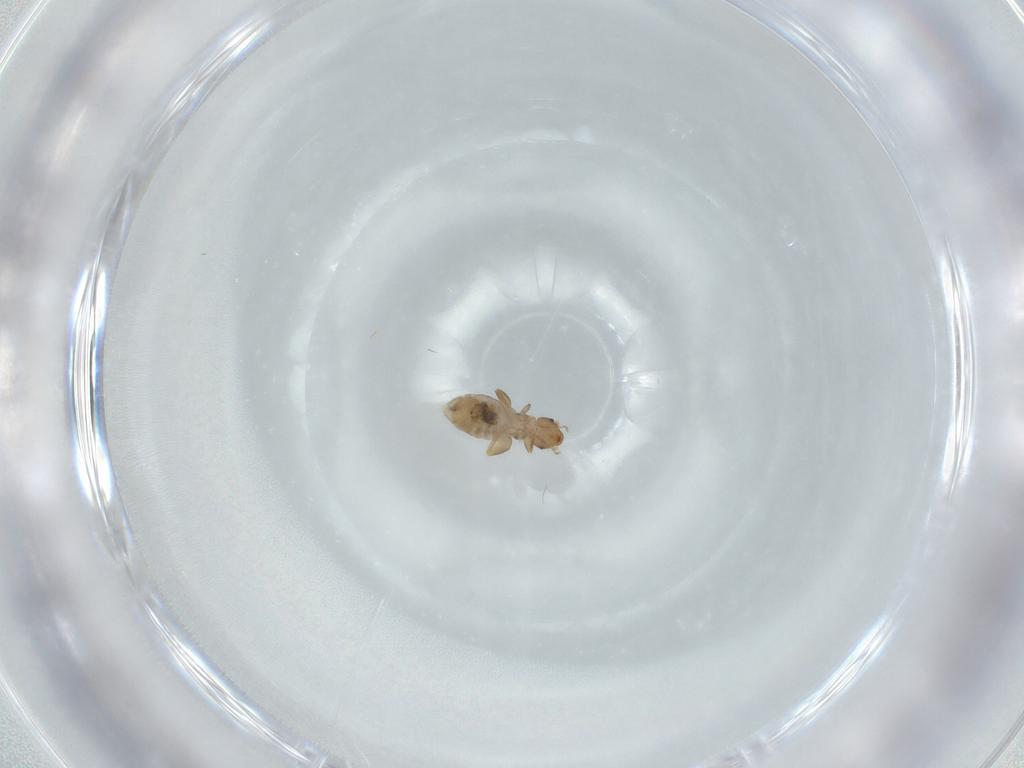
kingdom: Animalia
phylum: Arthropoda
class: Insecta
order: Psocodea
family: Liposcelididae
